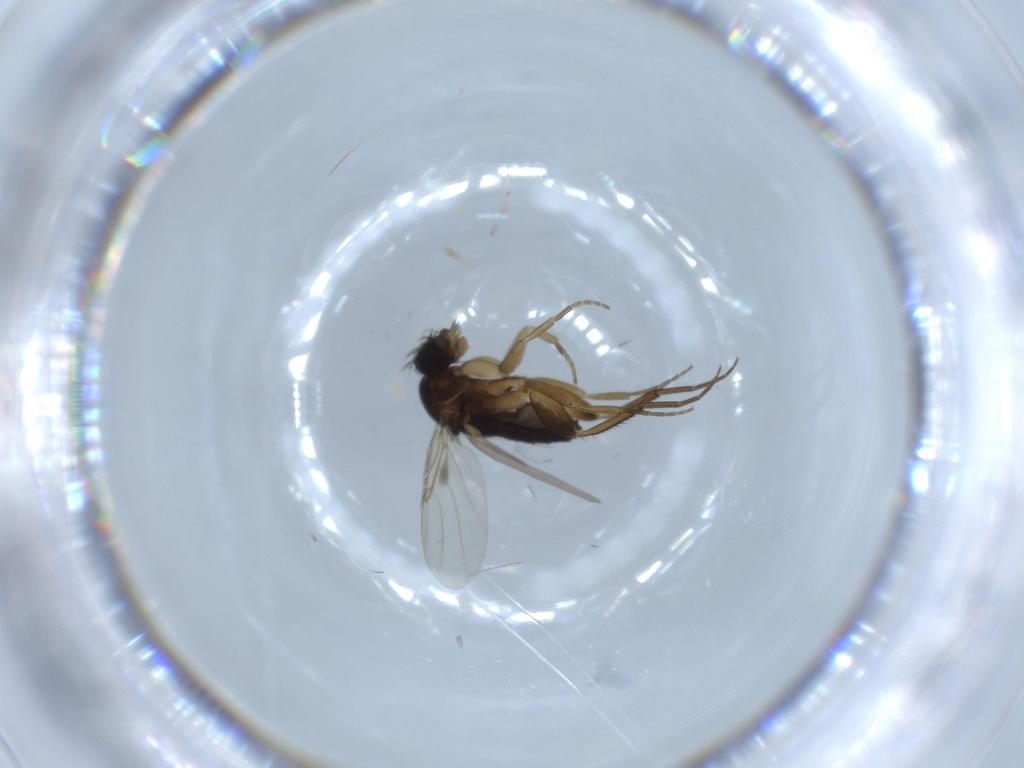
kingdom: Animalia
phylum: Arthropoda
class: Insecta
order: Diptera
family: Phoridae
